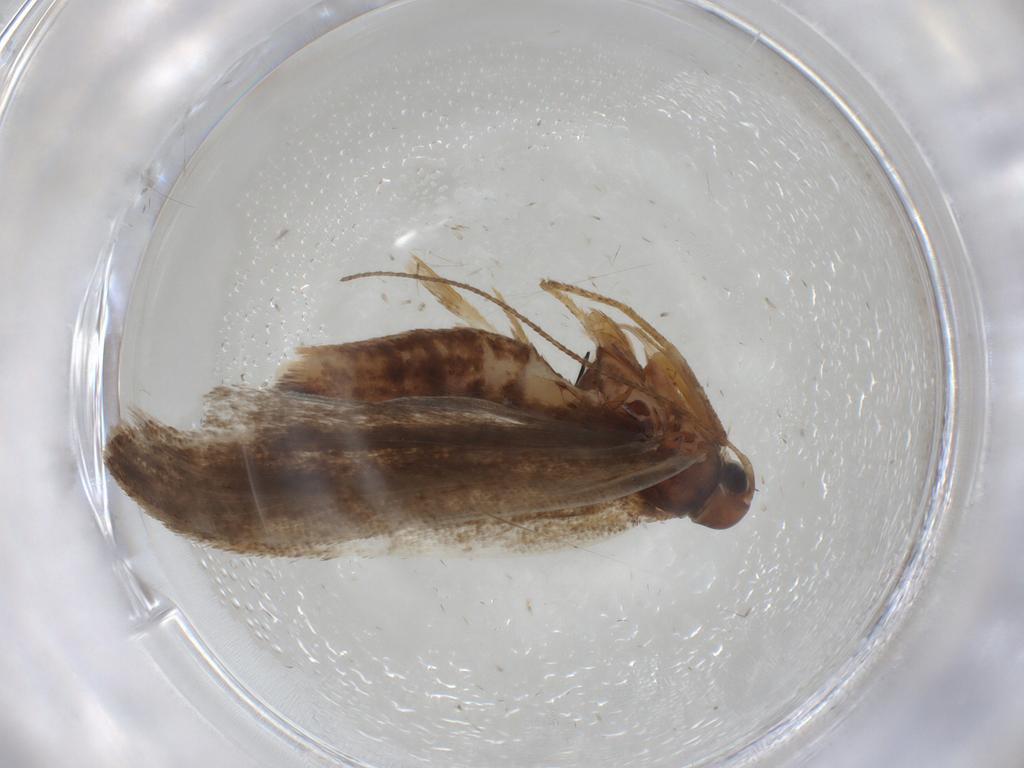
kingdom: Animalia
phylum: Arthropoda
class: Insecta
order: Lepidoptera
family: Gelechiidae
